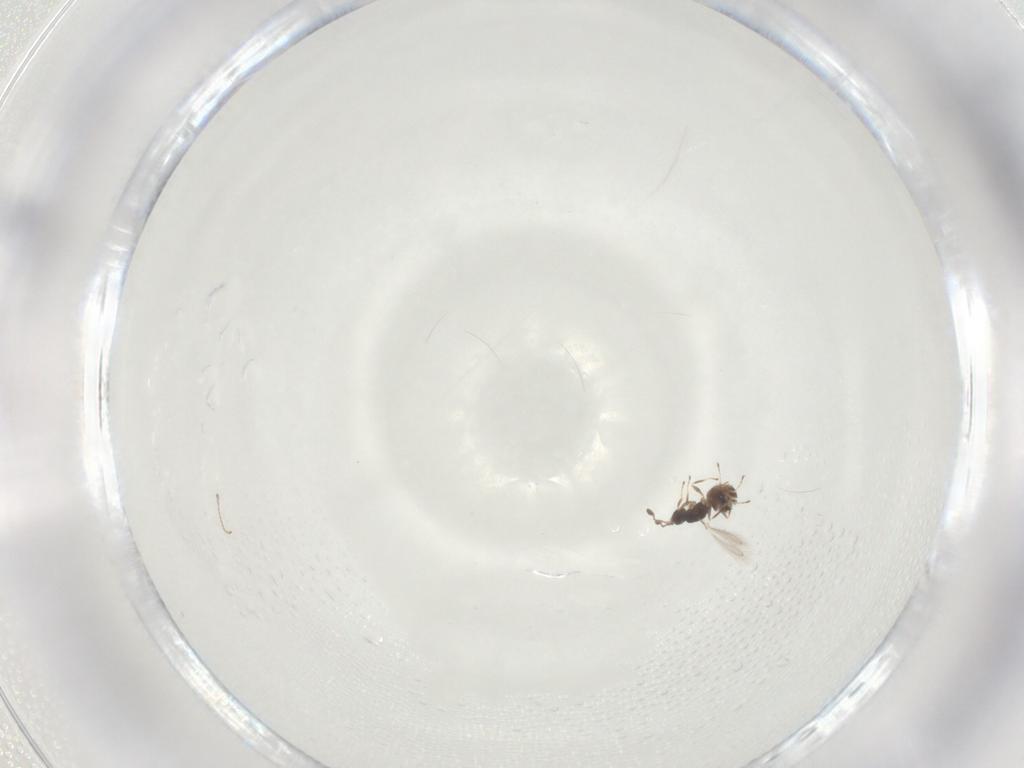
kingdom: Animalia
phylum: Arthropoda
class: Insecta
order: Hymenoptera
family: Mymaridae
